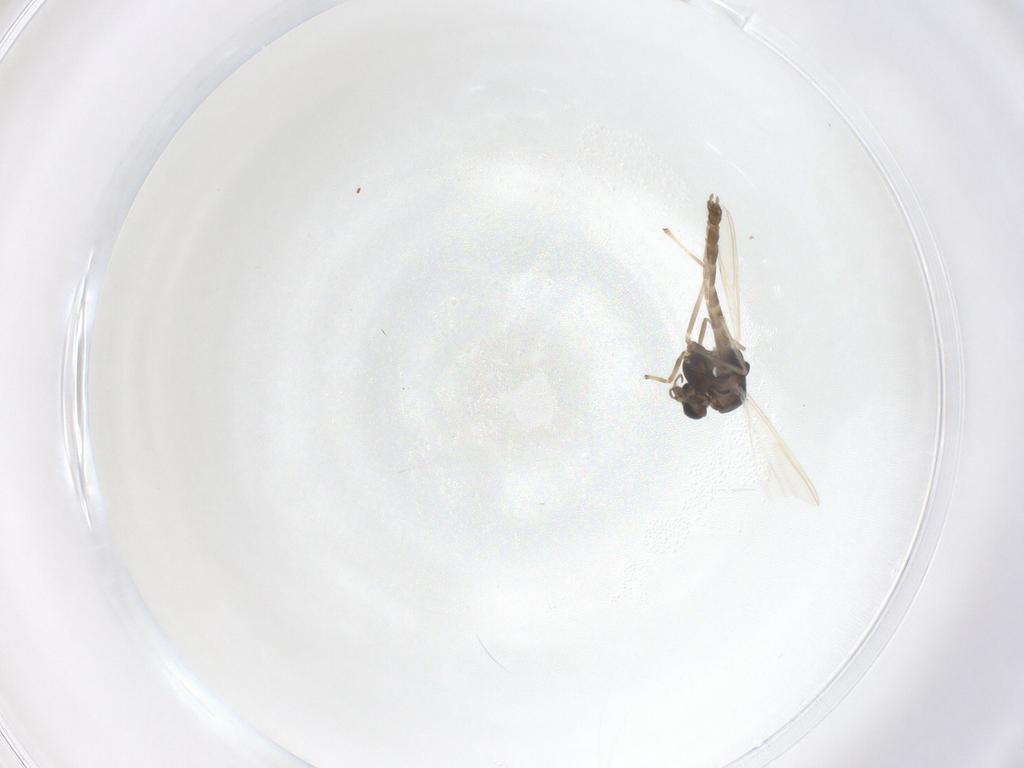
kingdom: Animalia
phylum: Arthropoda
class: Insecta
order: Diptera
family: Chironomidae
